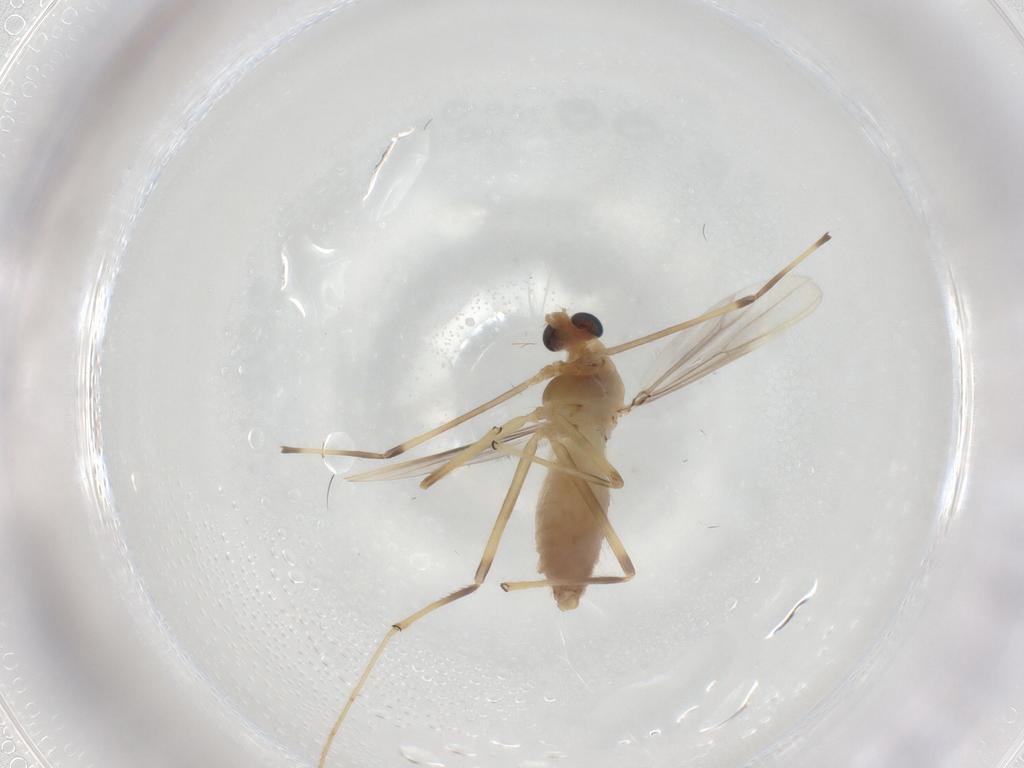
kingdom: Animalia
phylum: Arthropoda
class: Insecta
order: Diptera
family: Chironomidae
